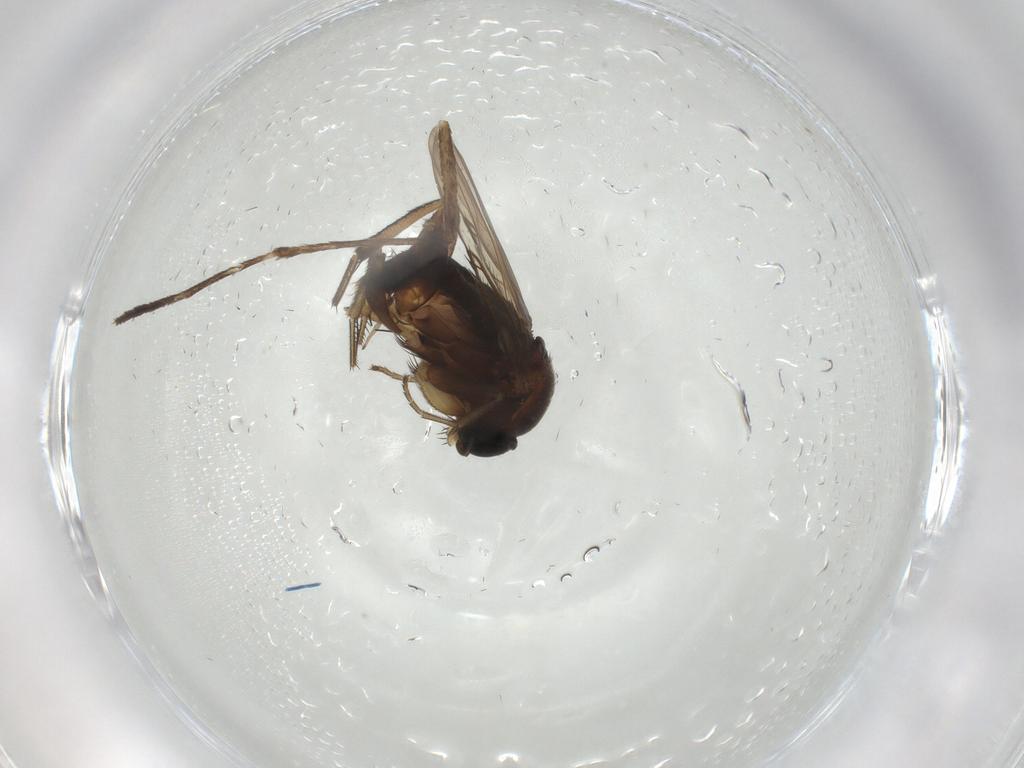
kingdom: Animalia
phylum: Arthropoda
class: Insecta
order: Diptera
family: Phoridae
